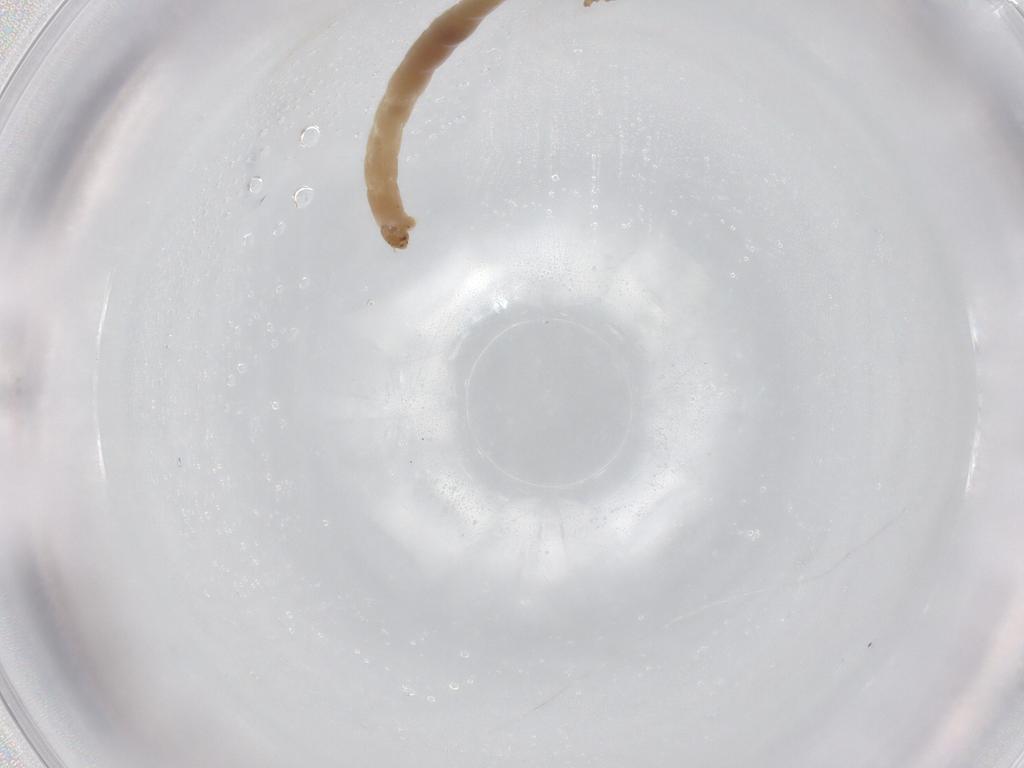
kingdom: Animalia
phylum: Arthropoda
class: Insecta
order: Diptera
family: Chironomidae
